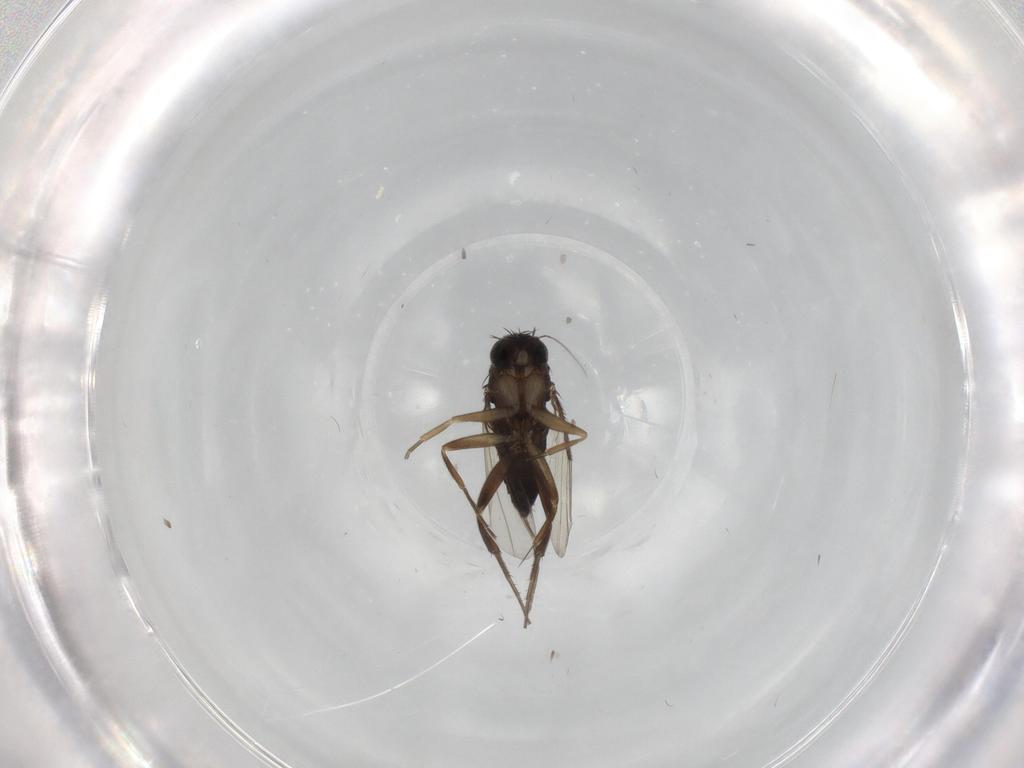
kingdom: Animalia
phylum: Arthropoda
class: Insecta
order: Diptera
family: Phoridae
